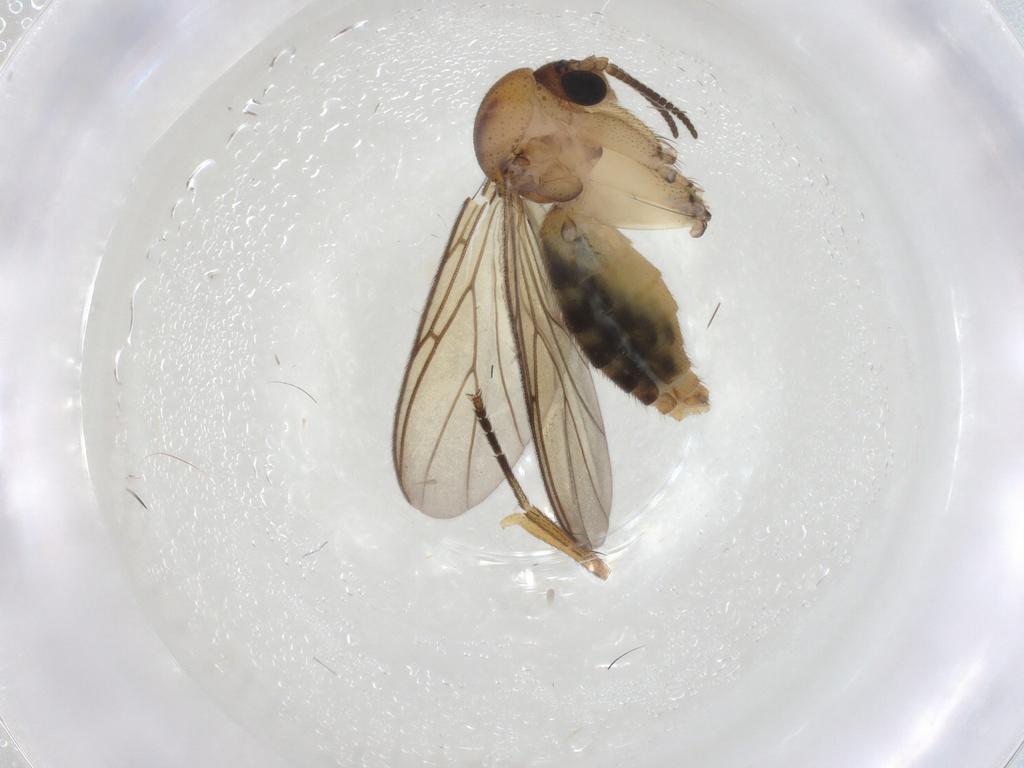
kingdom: Animalia
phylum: Arthropoda
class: Insecta
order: Diptera
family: Mycetophilidae
